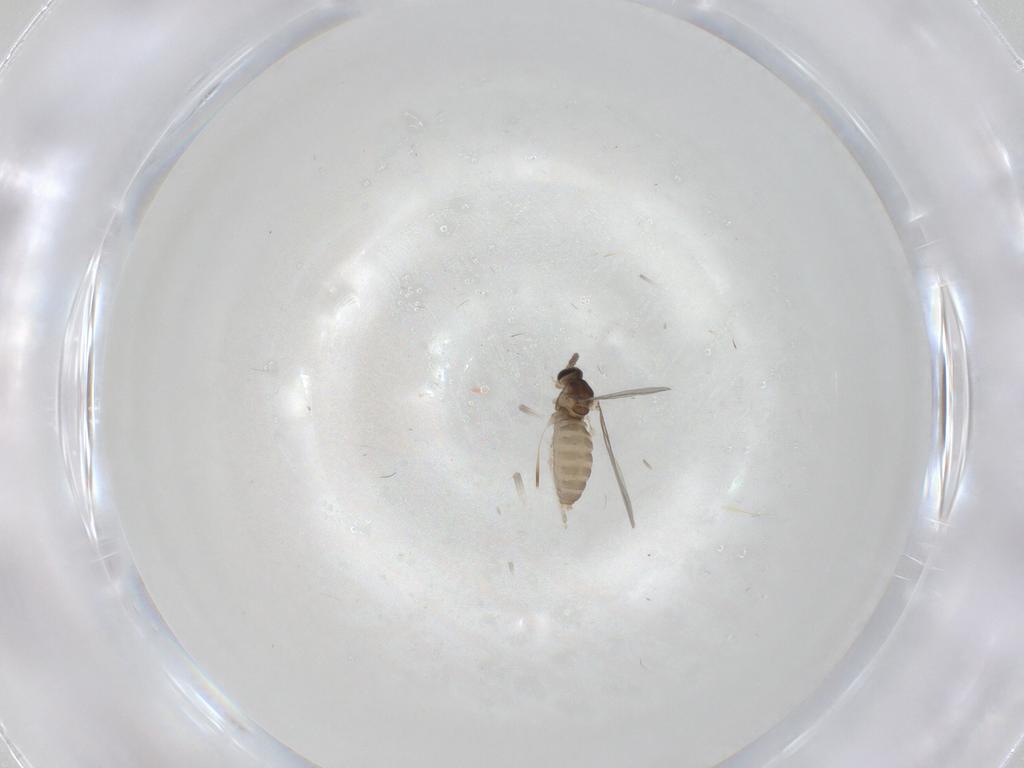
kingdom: Animalia
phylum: Arthropoda
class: Insecta
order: Diptera
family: Cecidomyiidae
